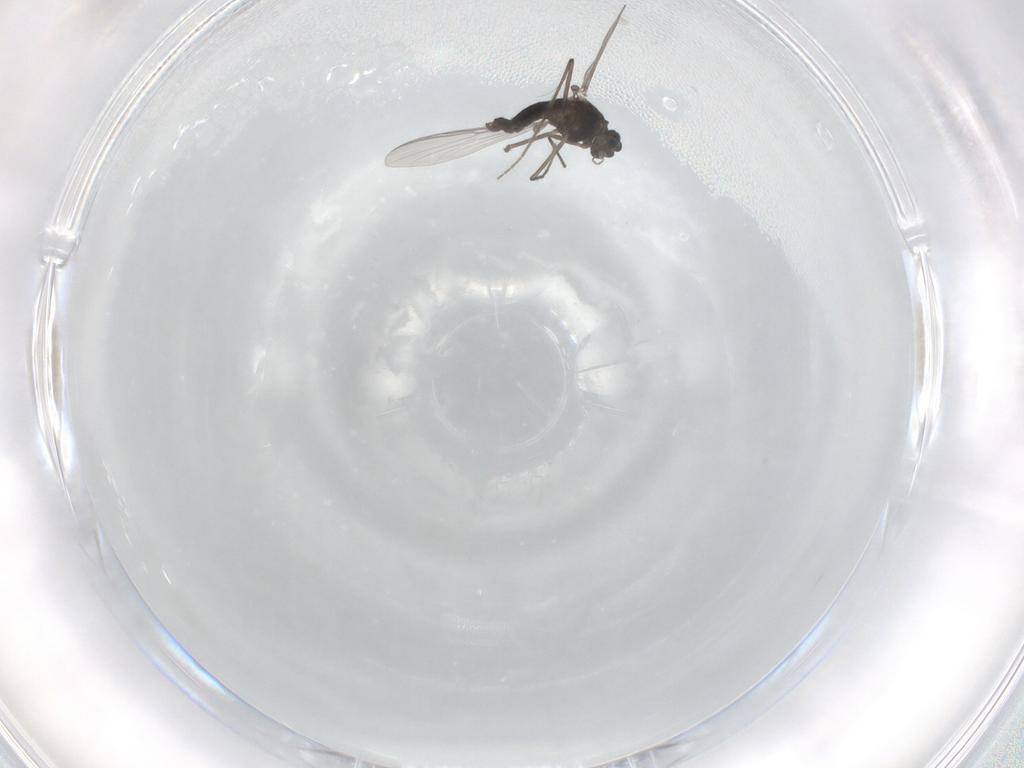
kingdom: Animalia
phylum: Arthropoda
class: Insecta
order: Diptera
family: Chironomidae
